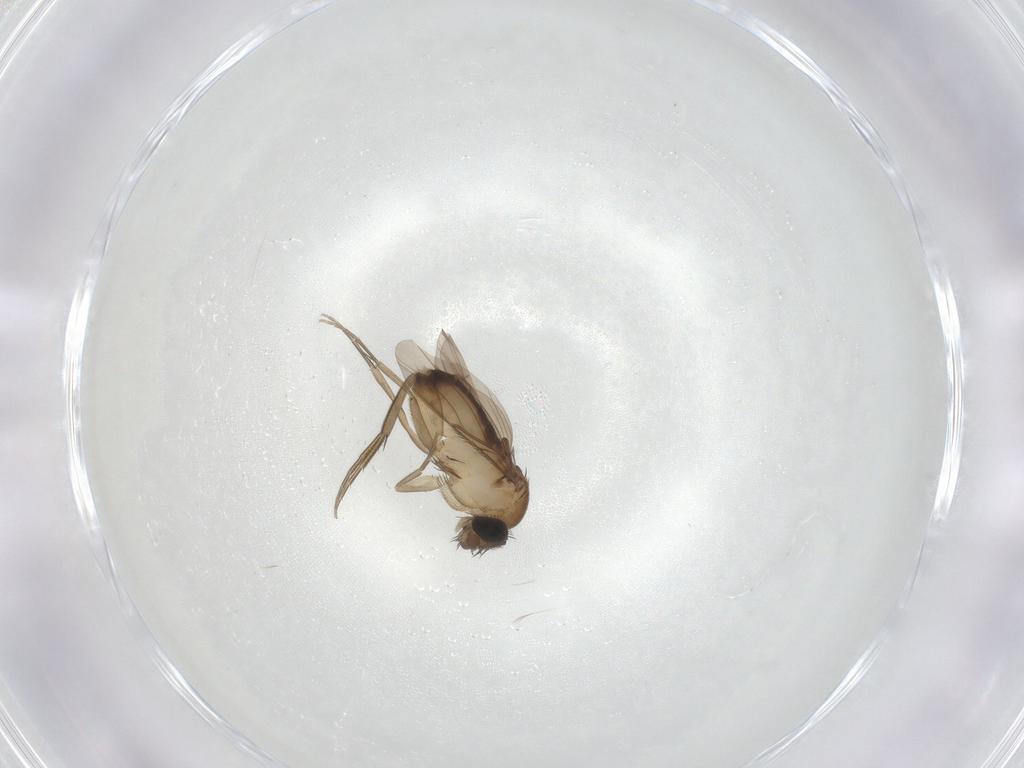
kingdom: Animalia
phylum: Arthropoda
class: Insecta
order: Diptera
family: Phoridae
